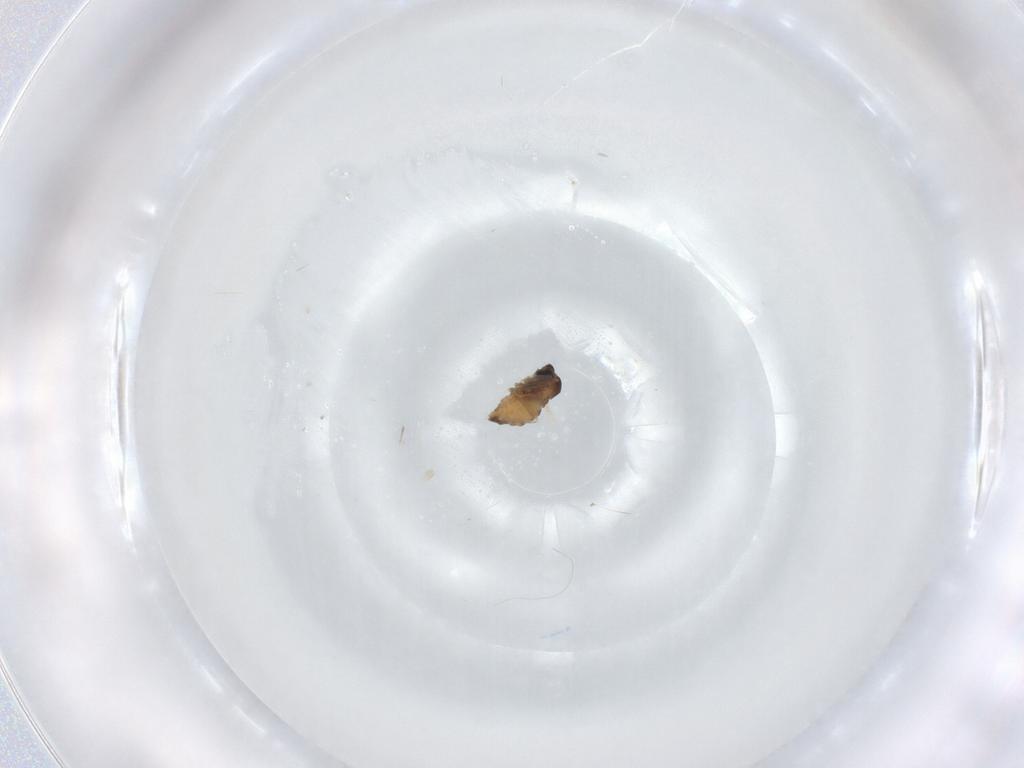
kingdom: Animalia
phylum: Arthropoda
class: Insecta
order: Diptera
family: Cecidomyiidae
